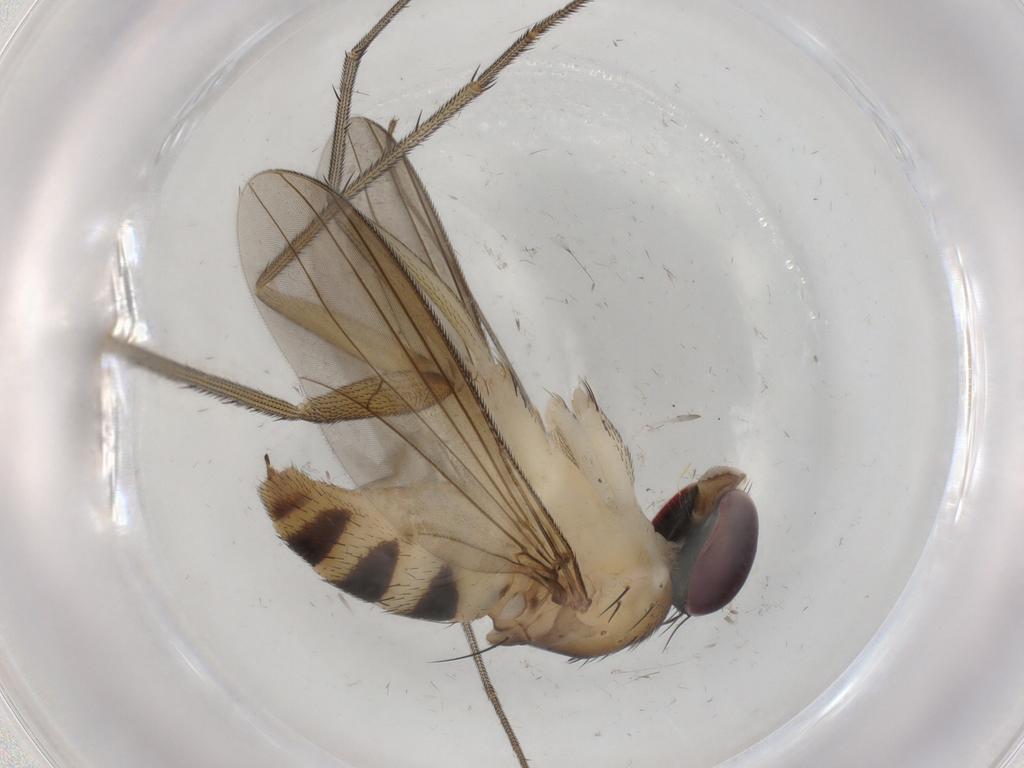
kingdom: Animalia
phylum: Arthropoda
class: Insecta
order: Diptera
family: Dolichopodidae
